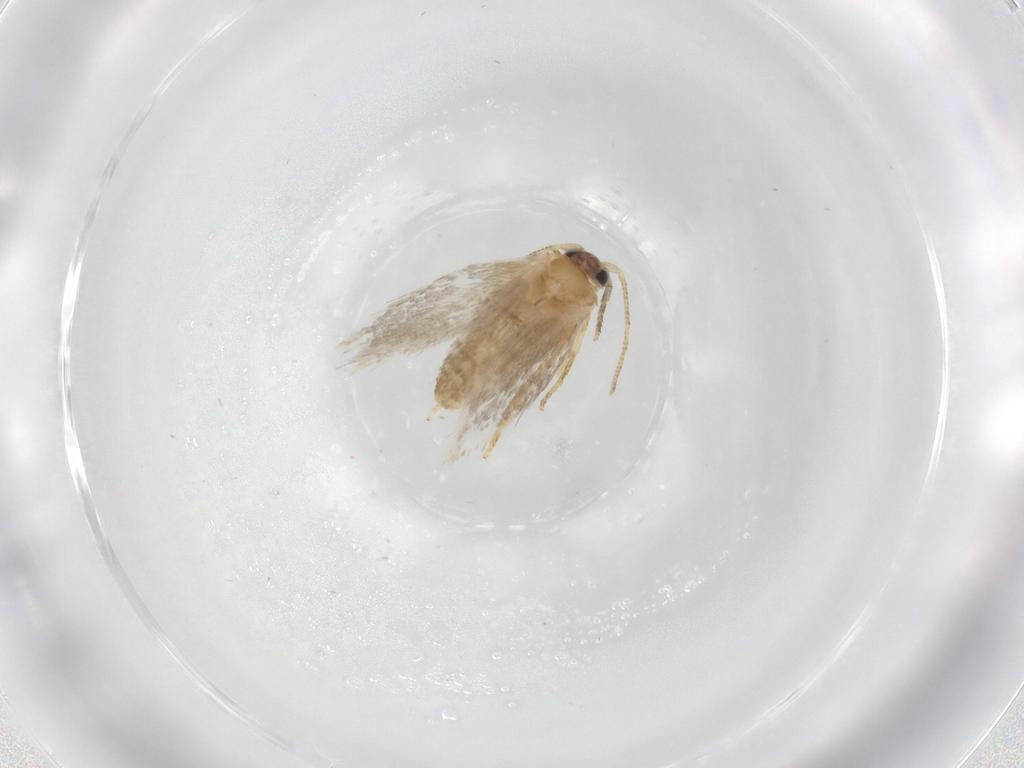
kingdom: Animalia
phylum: Arthropoda
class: Insecta
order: Lepidoptera
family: Nepticulidae
